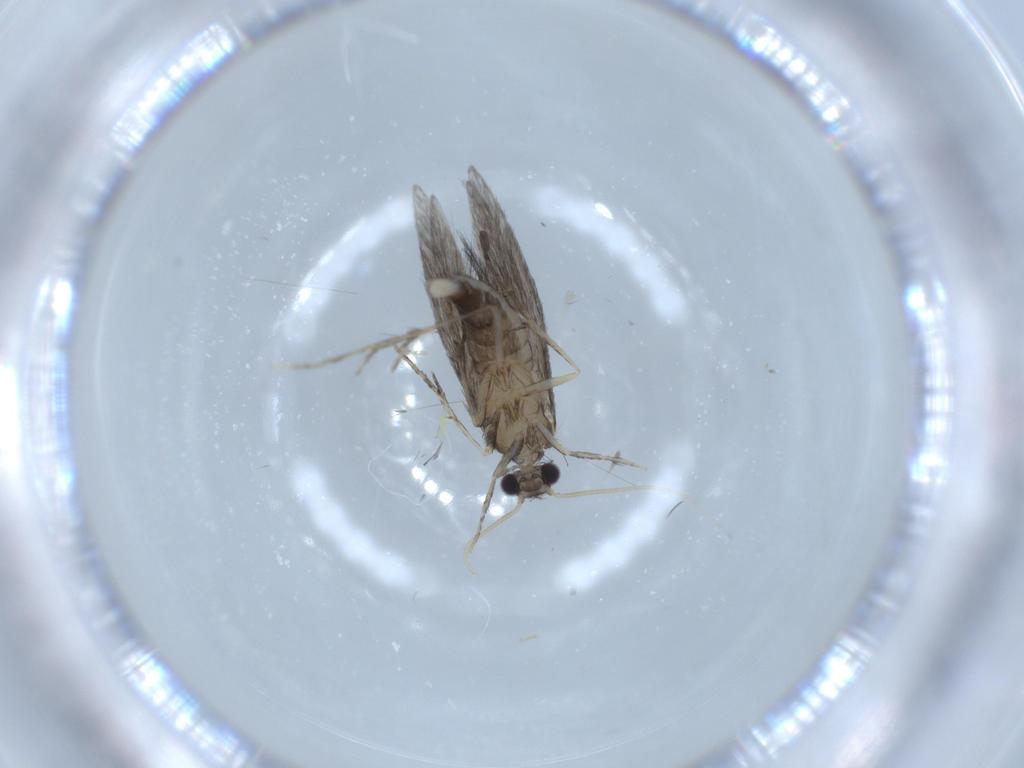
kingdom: Animalia
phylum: Arthropoda
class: Insecta
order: Trichoptera
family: Hydroptilidae
